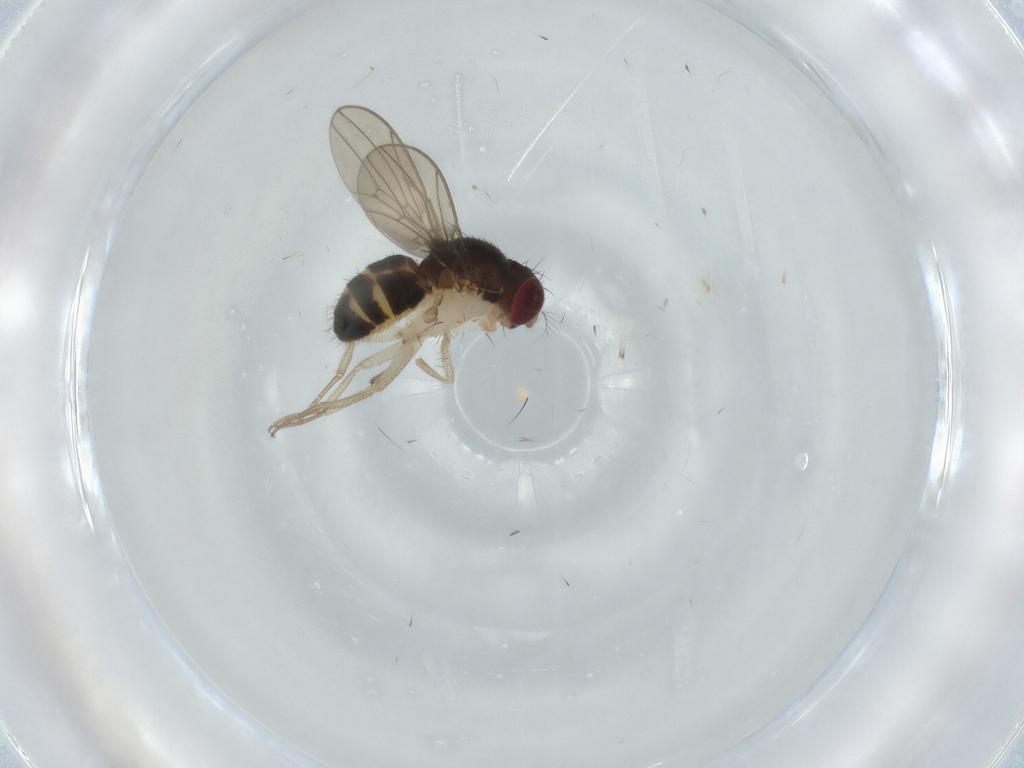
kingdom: Animalia
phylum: Arthropoda
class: Insecta
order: Diptera
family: Drosophilidae
